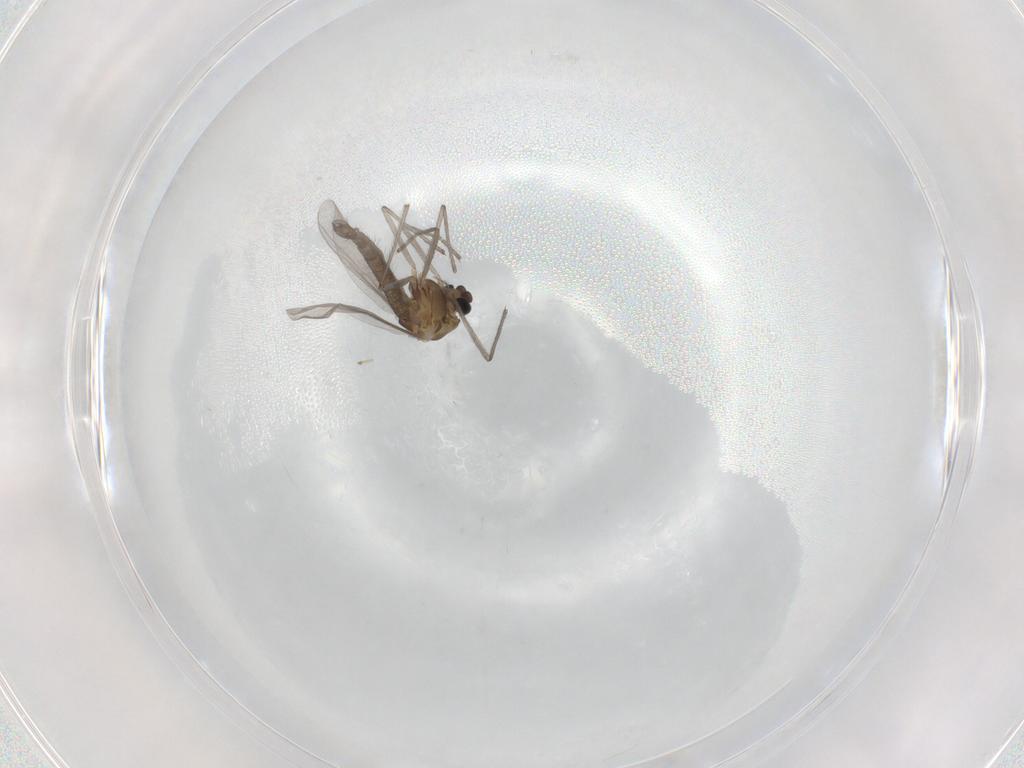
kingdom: Animalia
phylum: Arthropoda
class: Insecta
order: Diptera
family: Chironomidae
